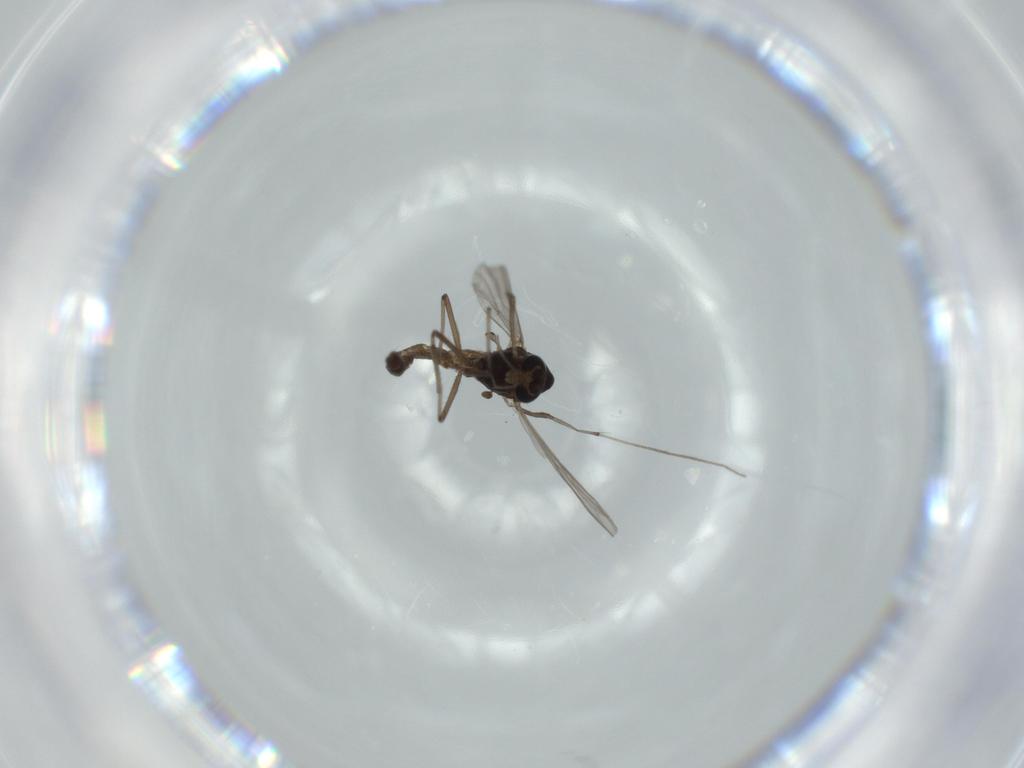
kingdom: Animalia
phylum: Arthropoda
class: Insecta
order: Diptera
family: Chironomidae
